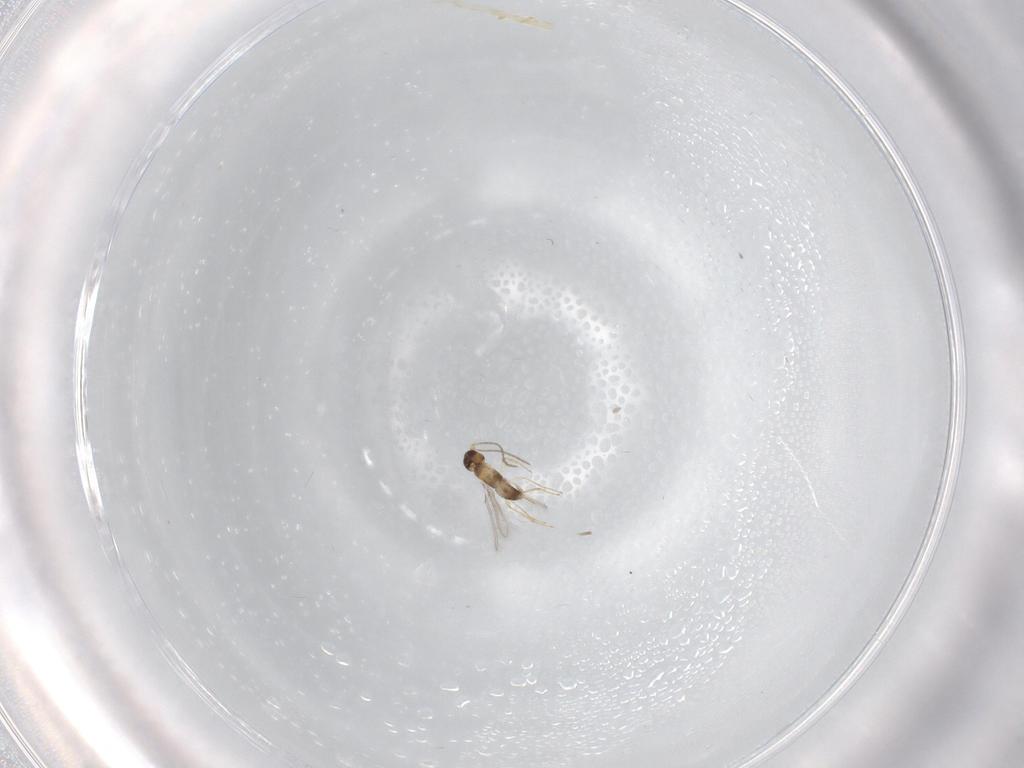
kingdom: Animalia
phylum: Arthropoda
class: Insecta
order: Hymenoptera
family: Mymaridae
